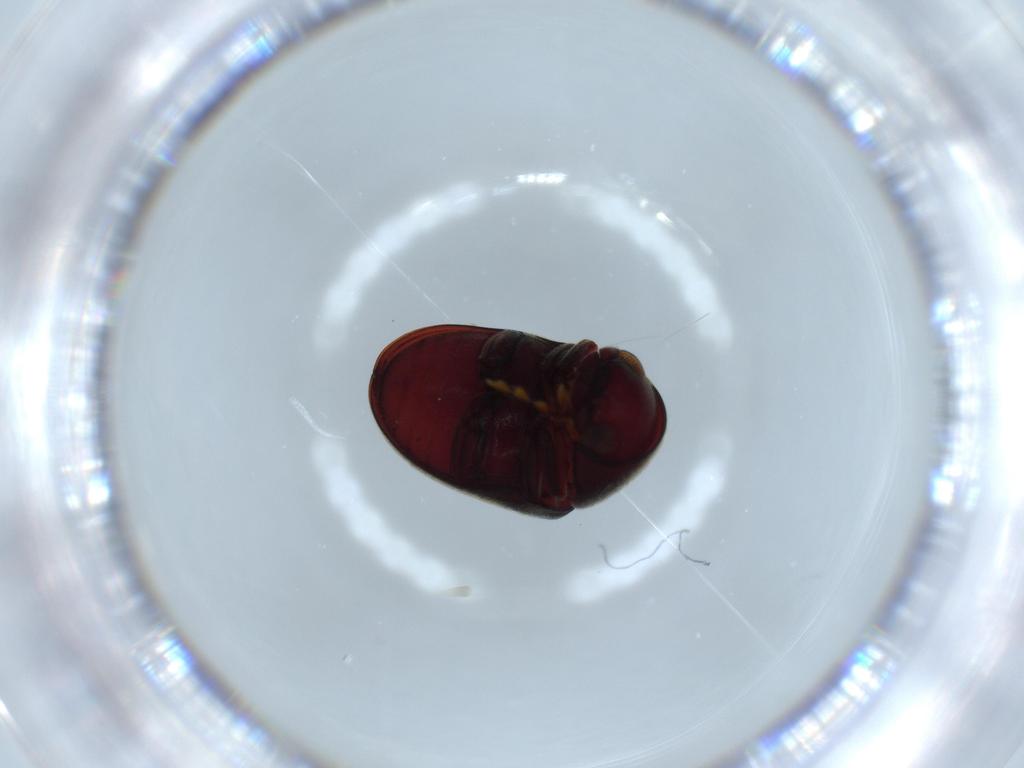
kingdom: Animalia
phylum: Arthropoda
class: Insecta
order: Coleoptera
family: Ptinidae
